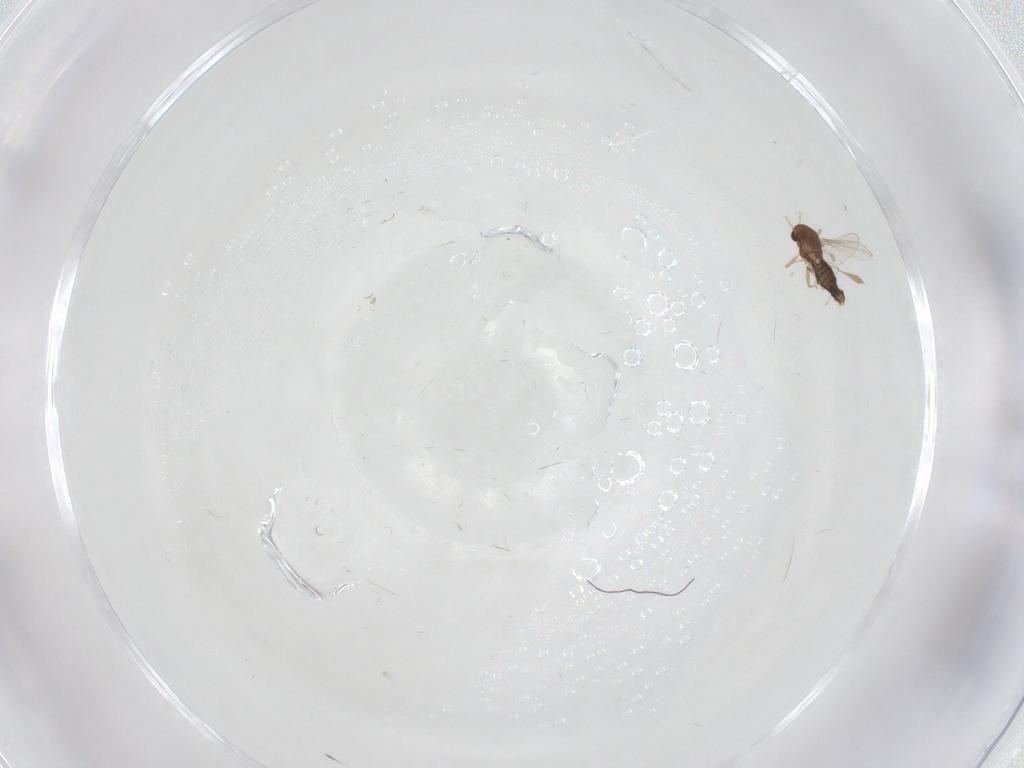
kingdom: Animalia
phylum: Arthropoda
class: Insecta
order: Diptera
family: Chironomidae
